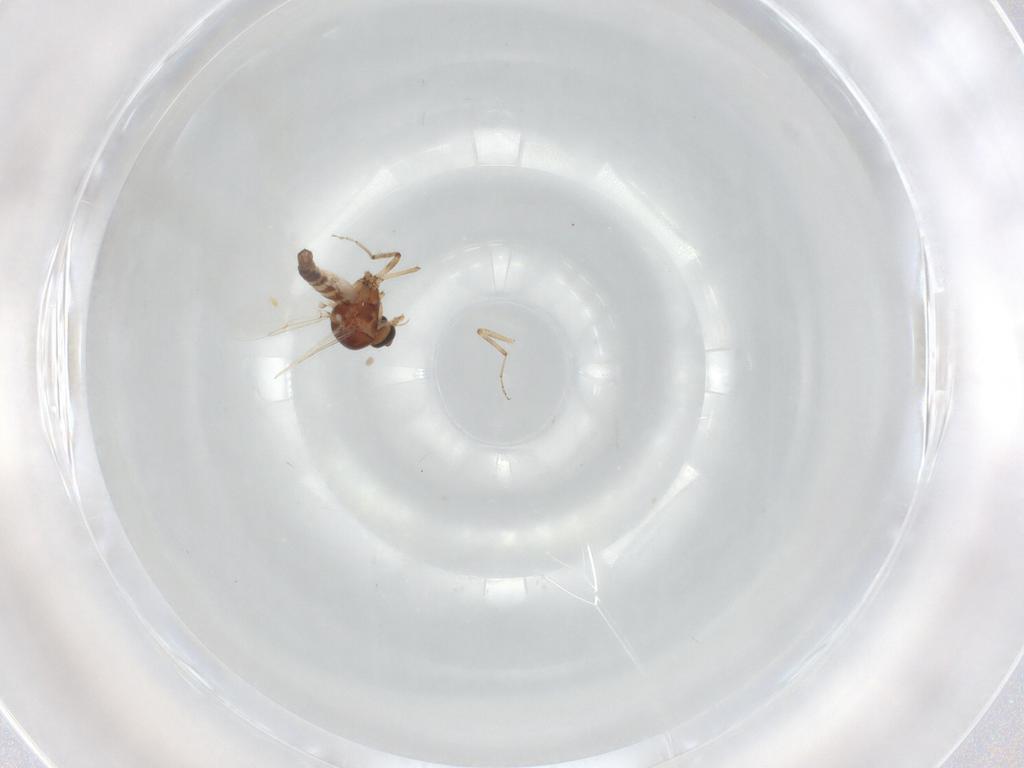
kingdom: Animalia
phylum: Arthropoda
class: Insecta
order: Diptera
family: Ceratopogonidae
